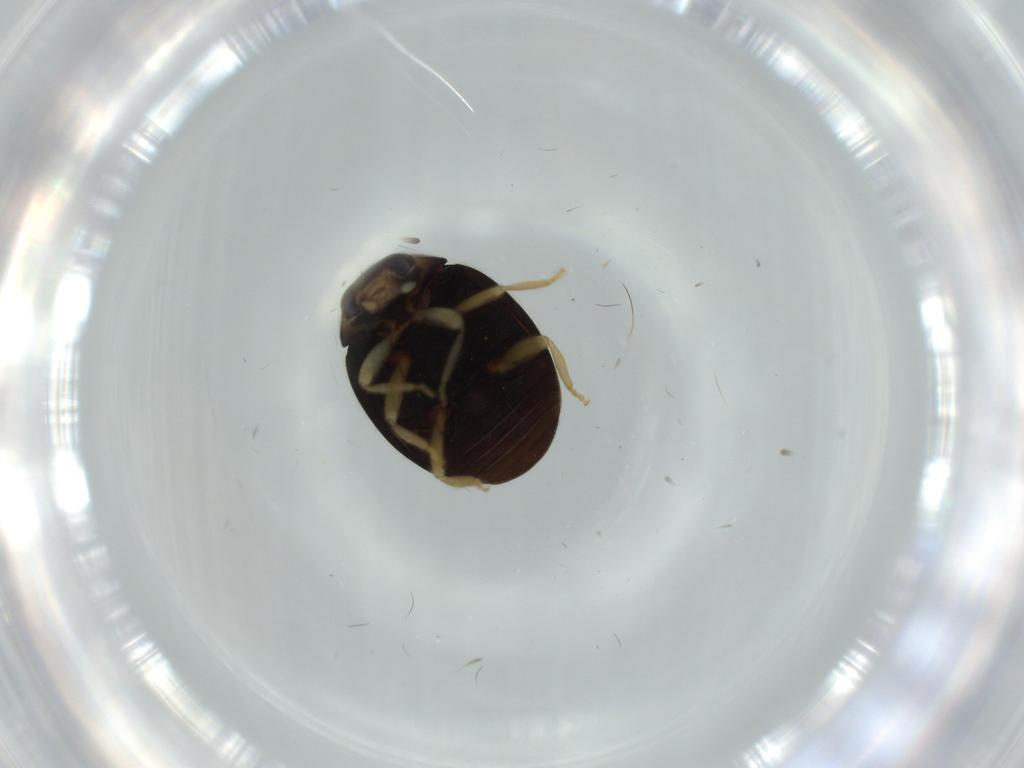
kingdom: Animalia
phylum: Arthropoda
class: Insecta
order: Coleoptera
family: Coccinellidae
